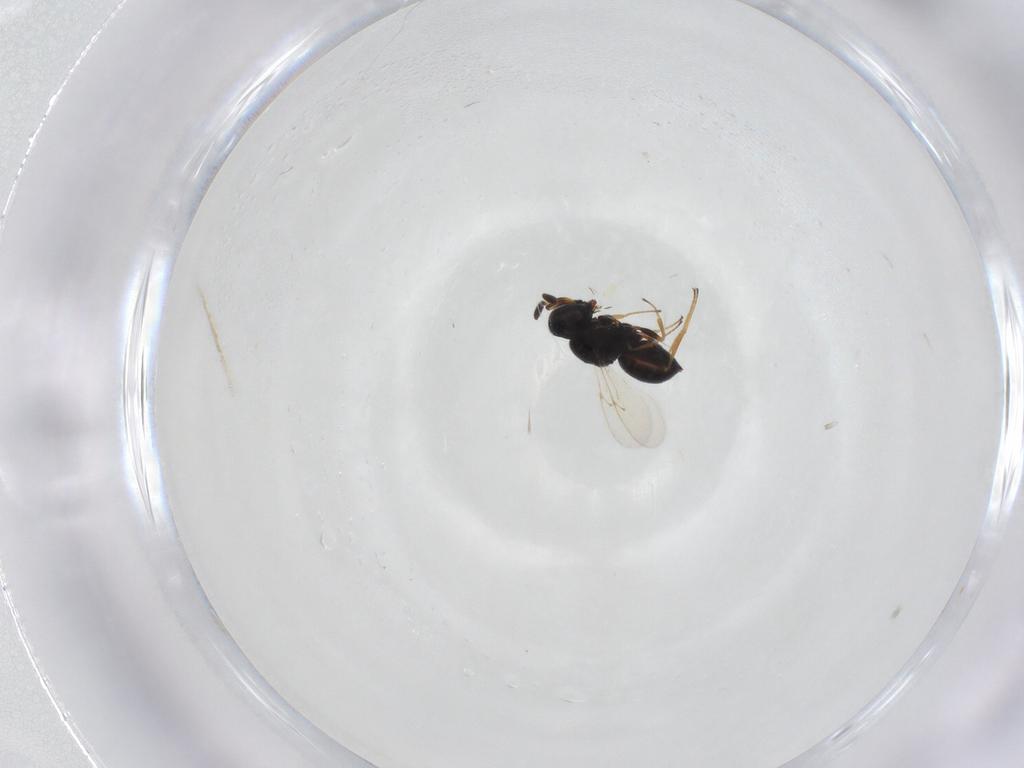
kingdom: Animalia
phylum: Arthropoda
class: Insecta
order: Hymenoptera
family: Scelionidae
